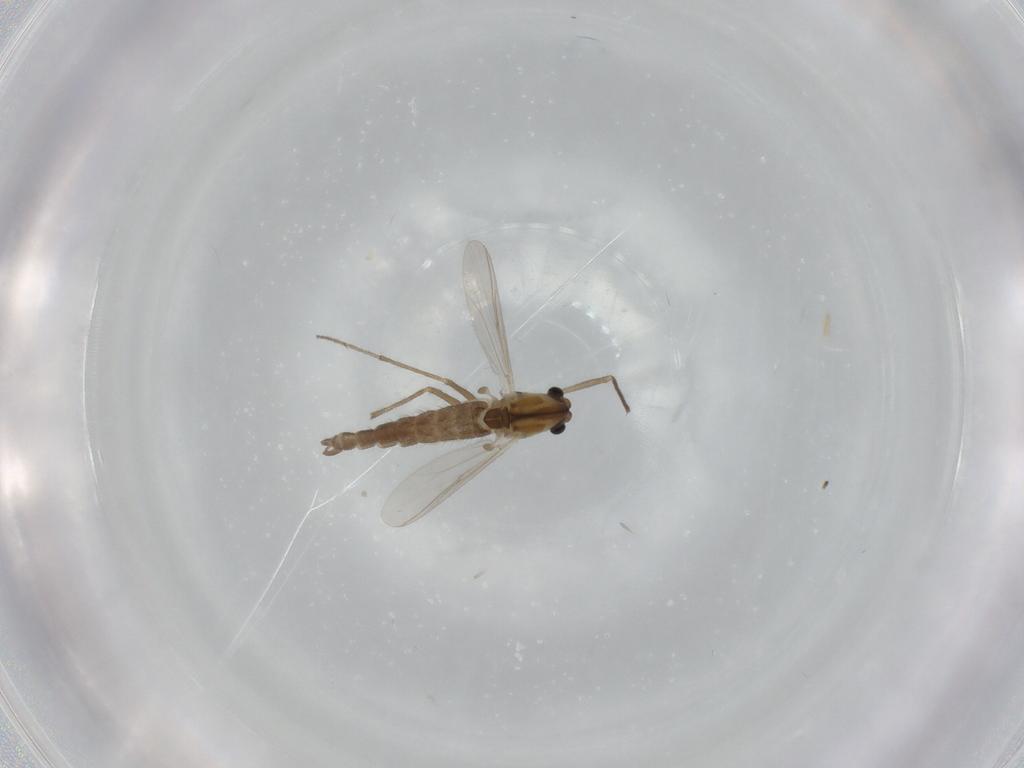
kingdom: Animalia
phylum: Arthropoda
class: Insecta
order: Diptera
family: Chironomidae
